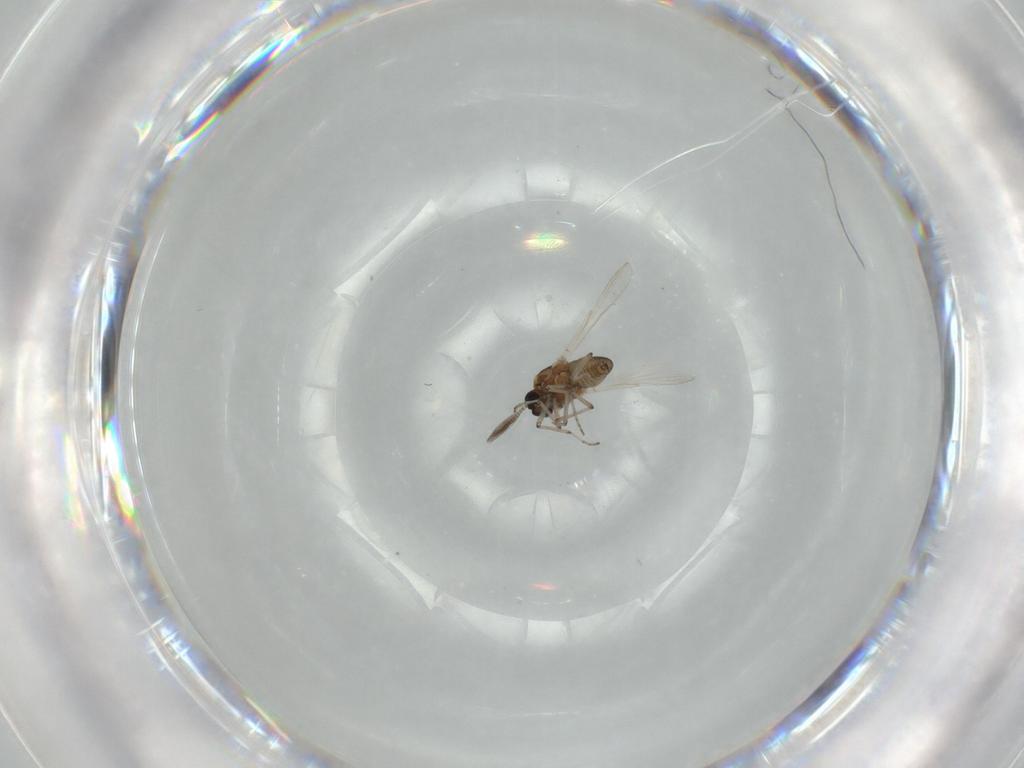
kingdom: Animalia
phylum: Arthropoda
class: Insecta
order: Diptera
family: Ceratopogonidae
